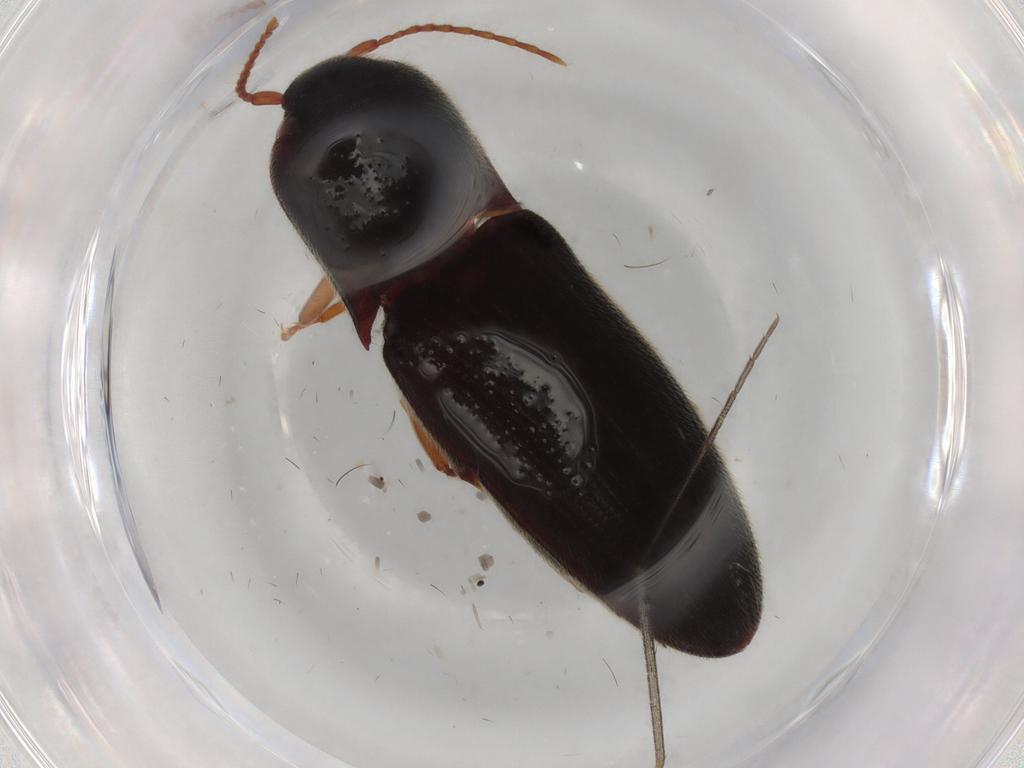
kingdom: Animalia
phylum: Arthropoda
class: Insecta
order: Coleoptera
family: Elateridae
